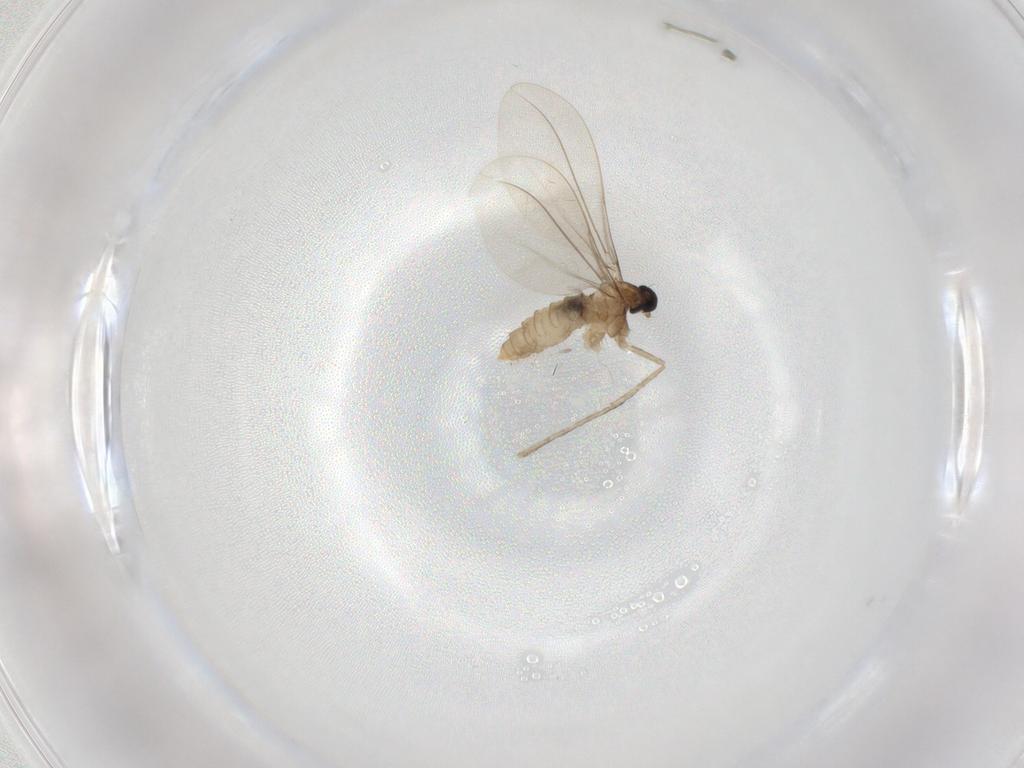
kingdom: Animalia
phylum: Arthropoda
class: Insecta
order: Diptera
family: Cecidomyiidae
